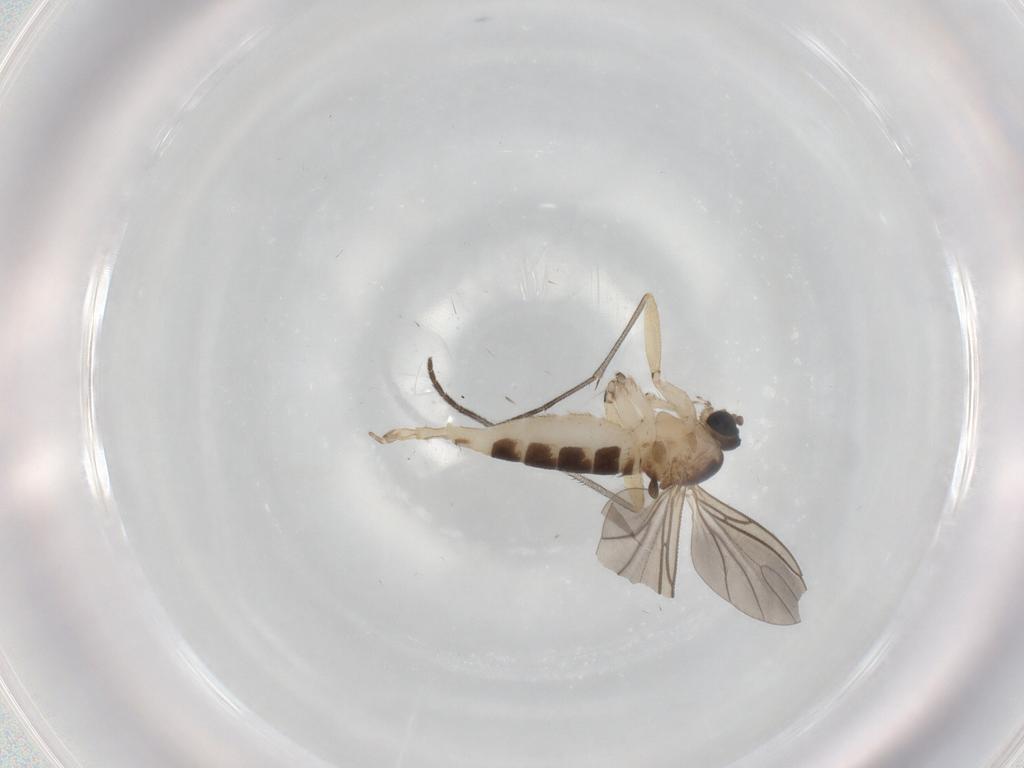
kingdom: Animalia
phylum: Arthropoda
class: Insecta
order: Diptera
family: Sciaridae
